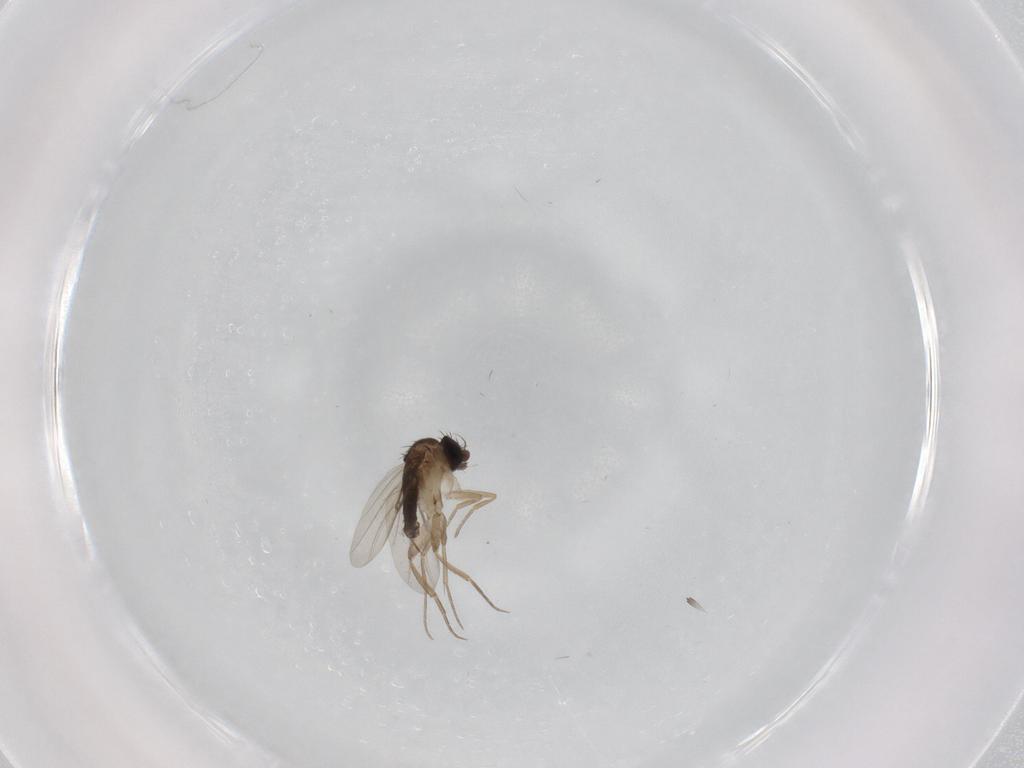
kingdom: Animalia
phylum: Arthropoda
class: Insecta
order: Diptera
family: Phoridae
